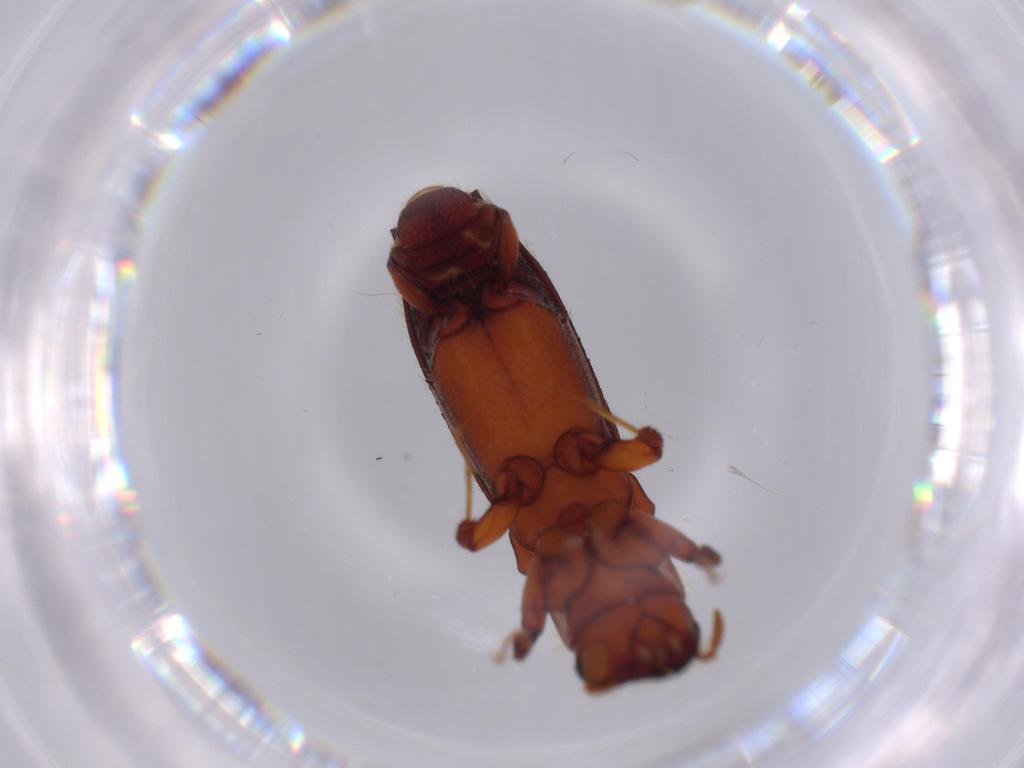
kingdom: Animalia
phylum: Arthropoda
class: Insecta
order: Coleoptera
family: Curculionidae
